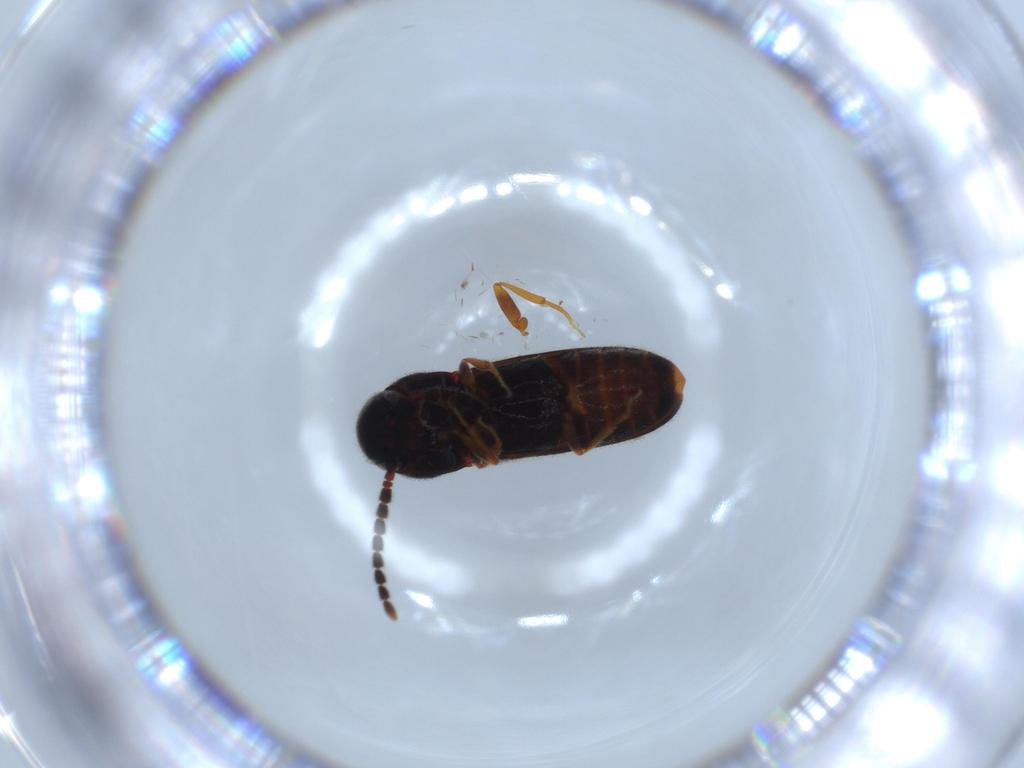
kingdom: Animalia
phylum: Arthropoda
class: Insecta
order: Coleoptera
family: Eucnemidae
